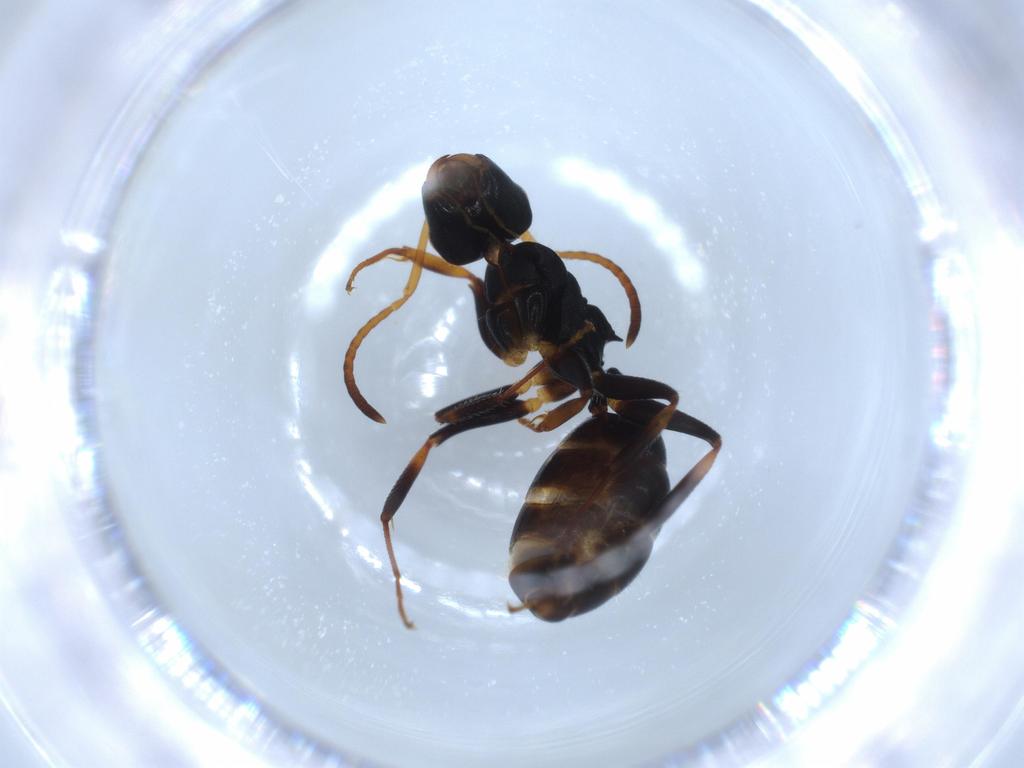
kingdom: Animalia
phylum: Arthropoda
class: Insecta
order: Hymenoptera
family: Formicidae
